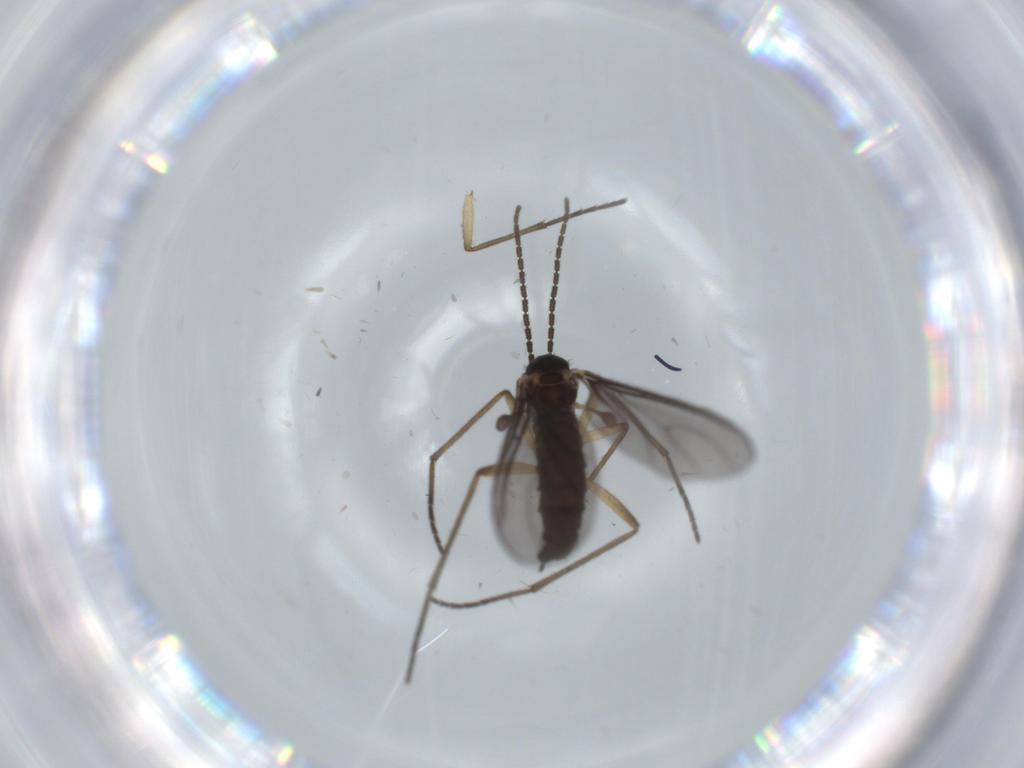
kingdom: Animalia
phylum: Arthropoda
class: Insecta
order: Diptera
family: Sciaridae
